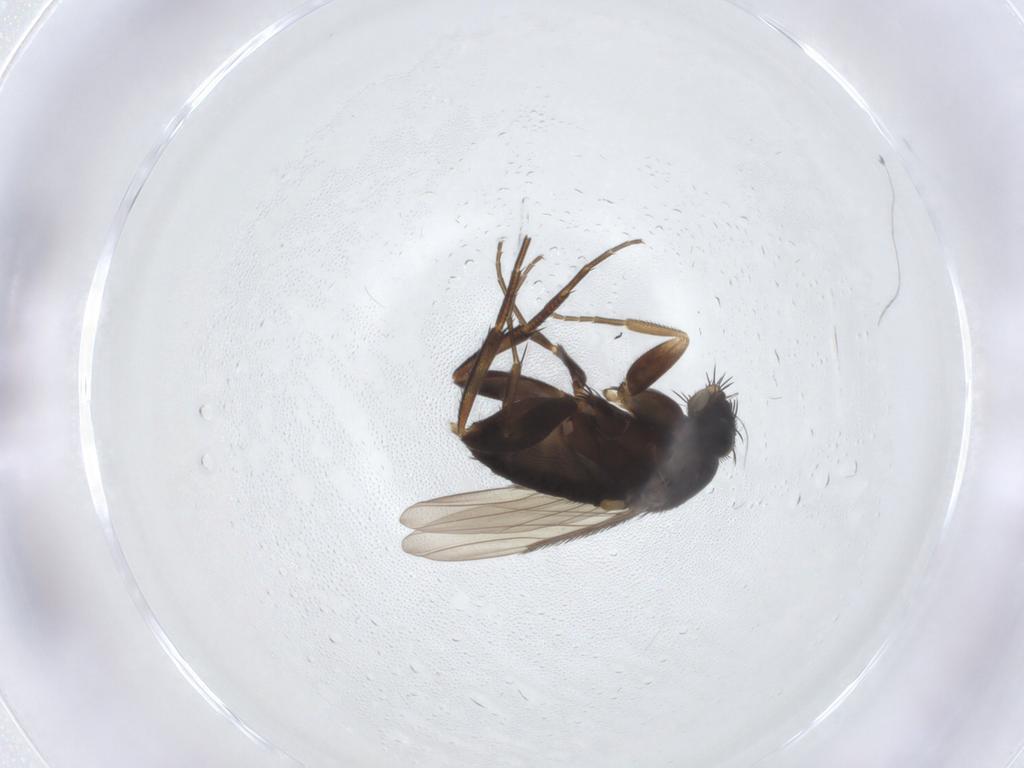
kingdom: Animalia
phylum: Arthropoda
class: Insecta
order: Diptera
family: Phoridae
